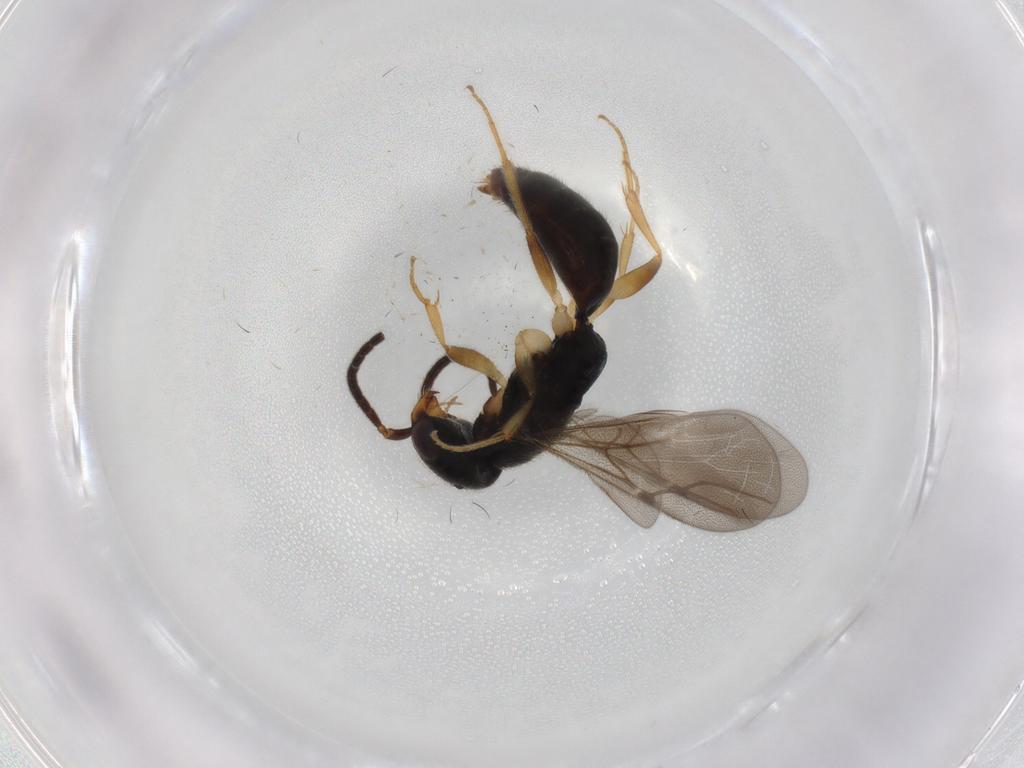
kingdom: Animalia
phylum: Arthropoda
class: Insecta
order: Hymenoptera
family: Bethylidae
